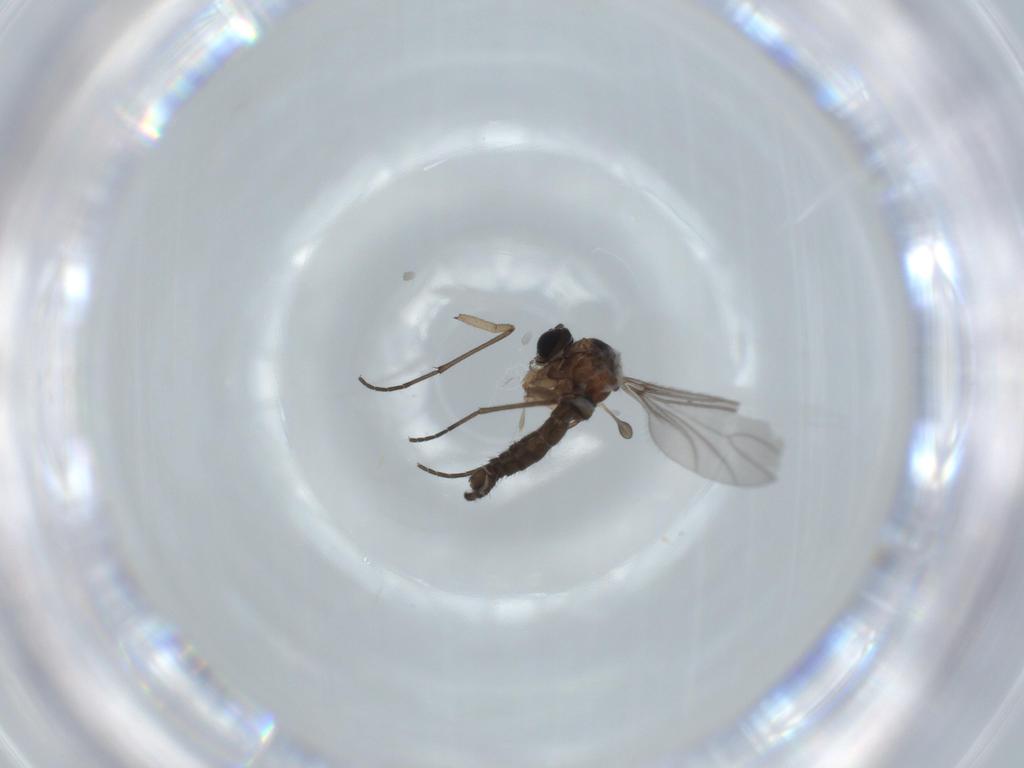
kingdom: Animalia
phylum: Arthropoda
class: Insecta
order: Diptera
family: Sciaridae
